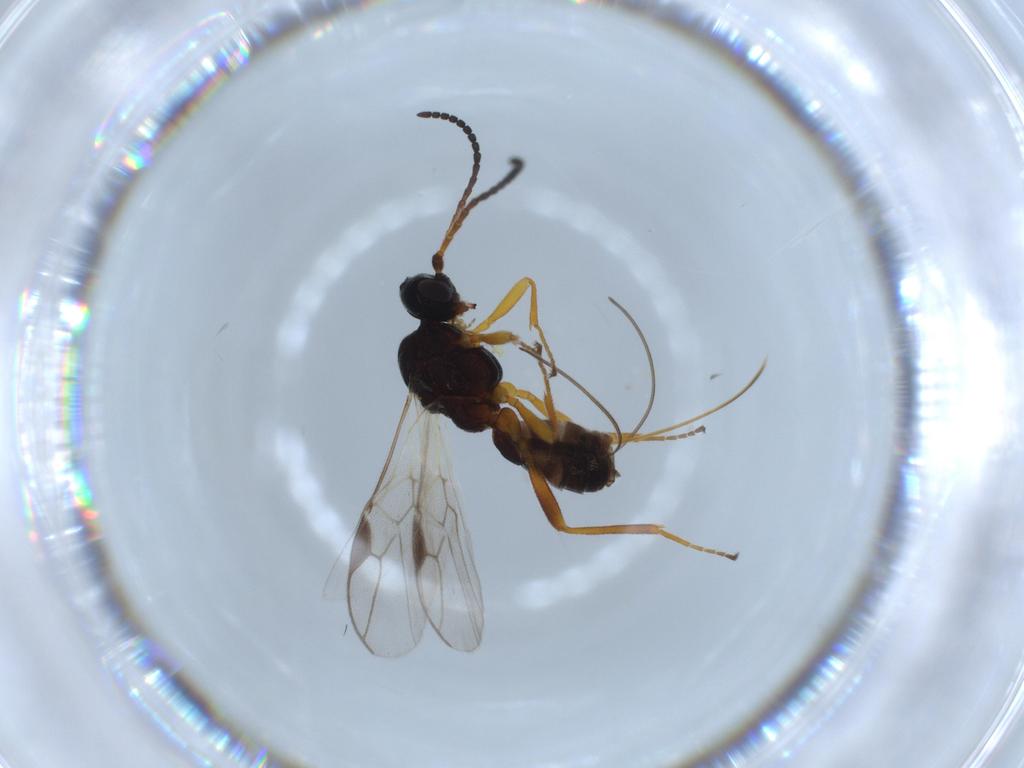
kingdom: Animalia
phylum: Arthropoda
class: Insecta
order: Hymenoptera
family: Braconidae
